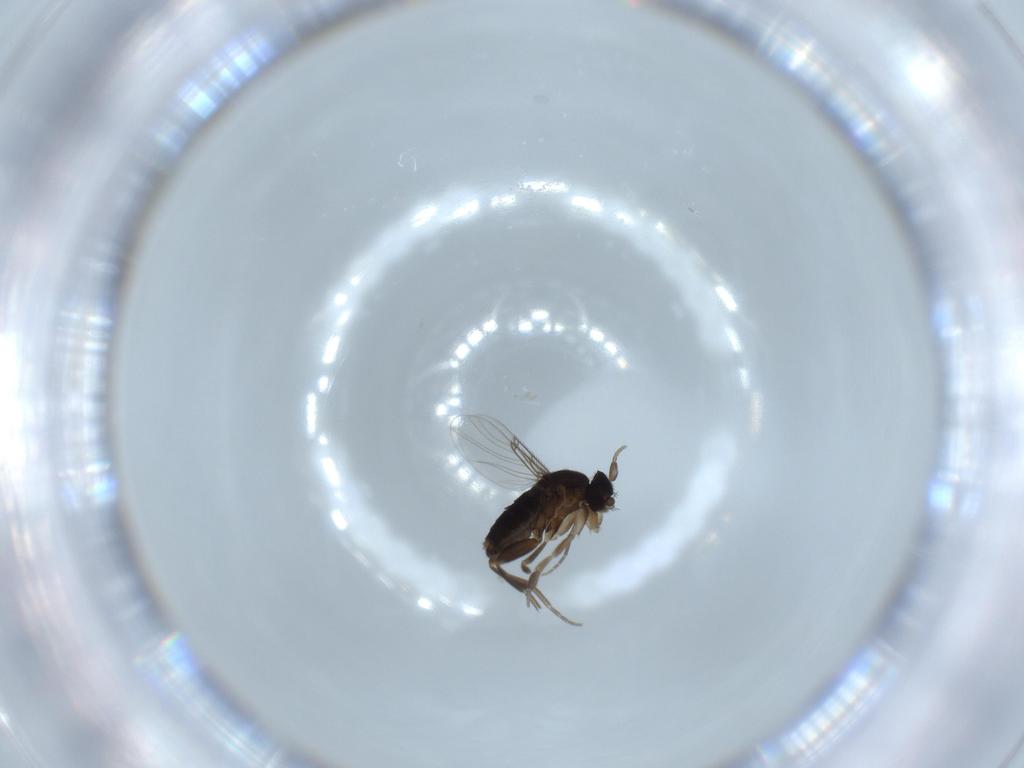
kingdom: Animalia
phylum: Arthropoda
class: Insecta
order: Diptera
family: Phoridae
